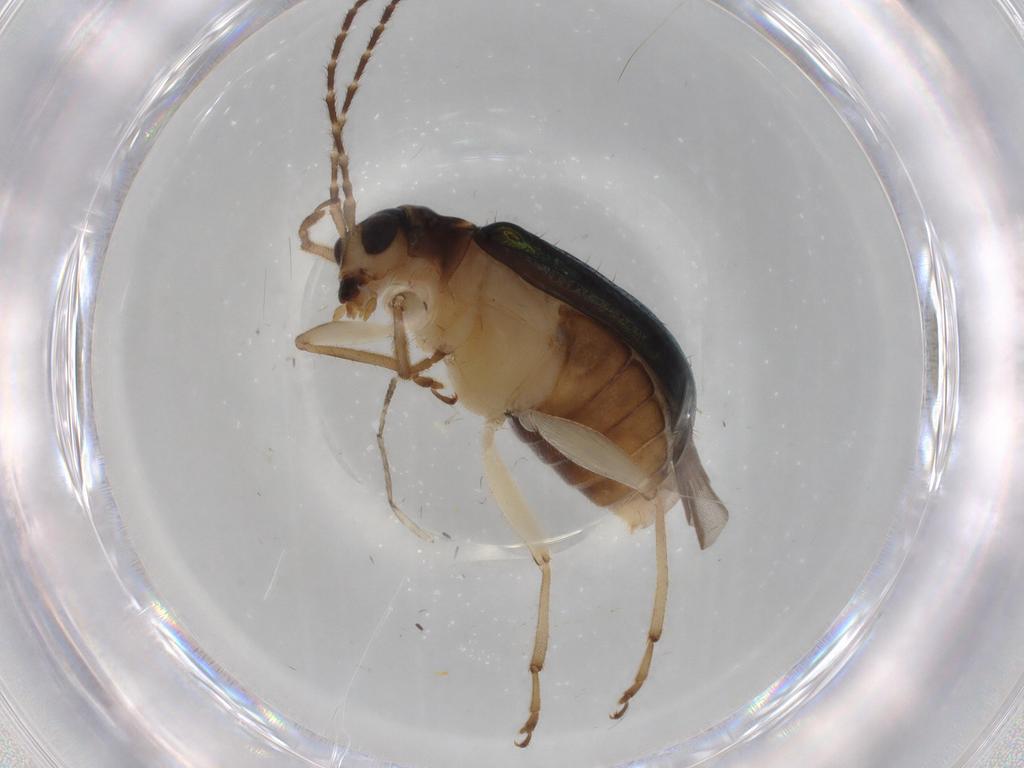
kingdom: Animalia
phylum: Arthropoda
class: Insecta
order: Coleoptera
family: Chrysomelidae
